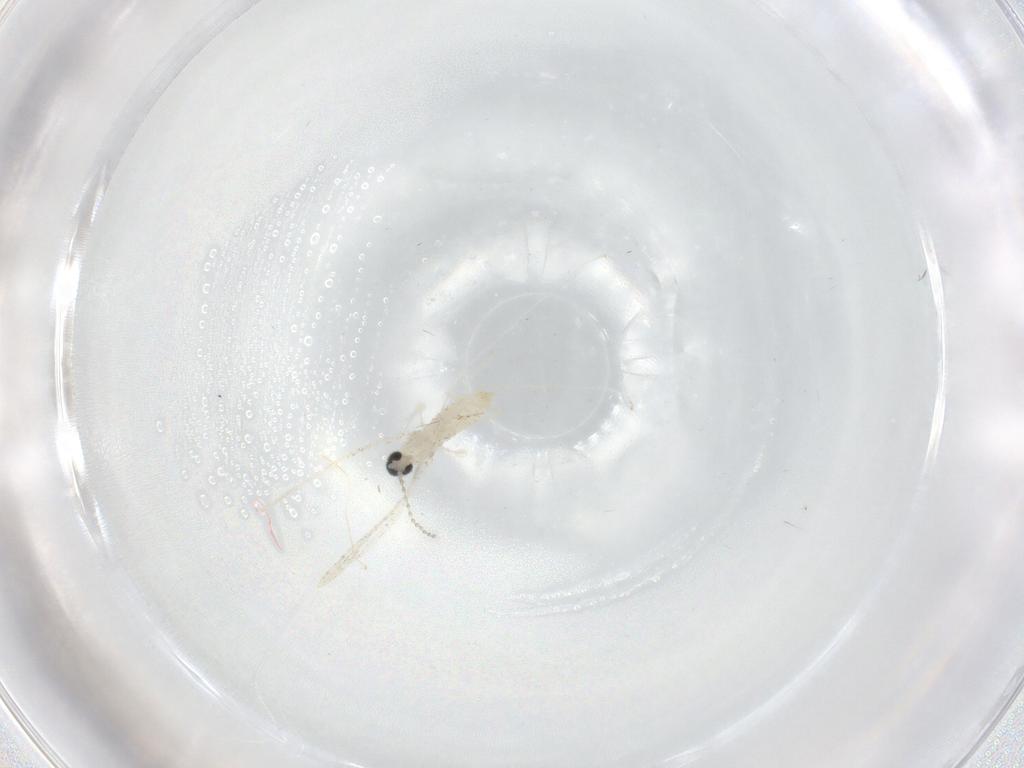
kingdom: Animalia
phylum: Arthropoda
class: Insecta
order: Diptera
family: Cecidomyiidae
